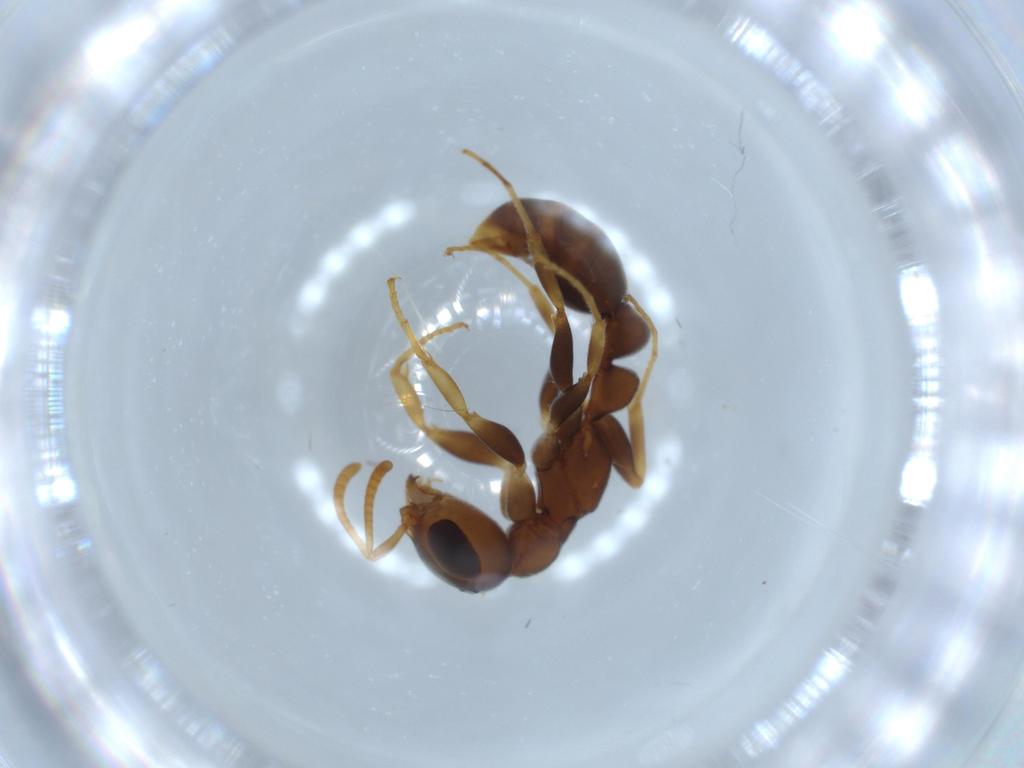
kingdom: Animalia
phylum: Arthropoda
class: Insecta
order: Hymenoptera
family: Formicidae
